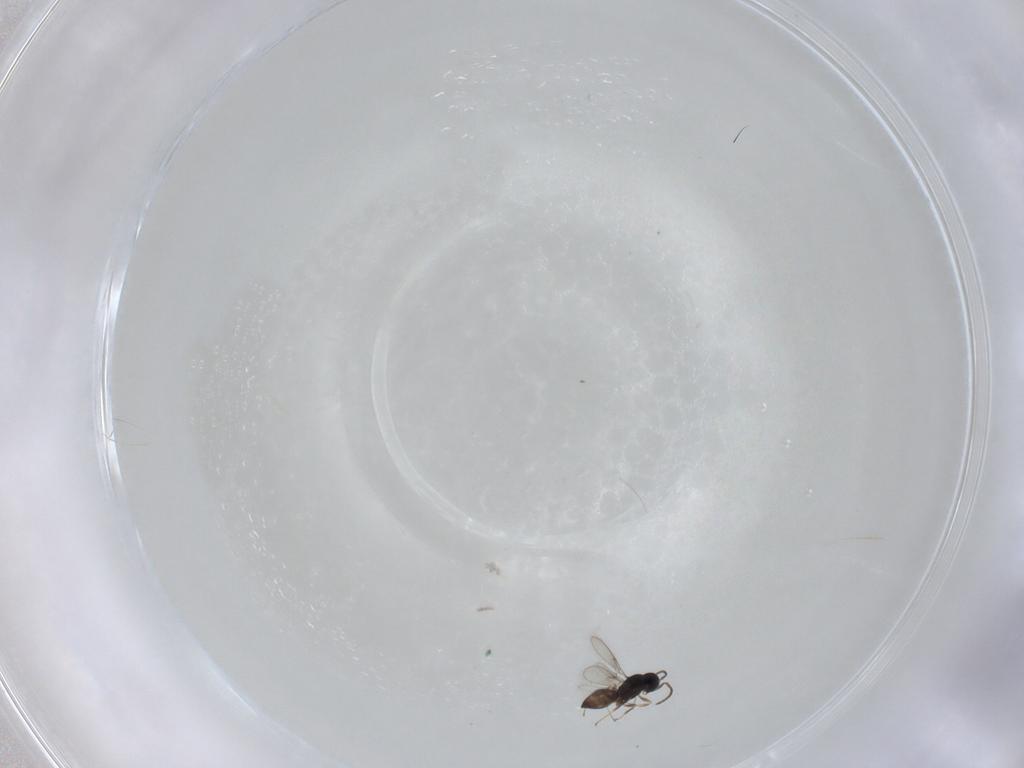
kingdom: Animalia
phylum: Arthropoda
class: Insecta
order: Hymenoptera
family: Scelionidae
